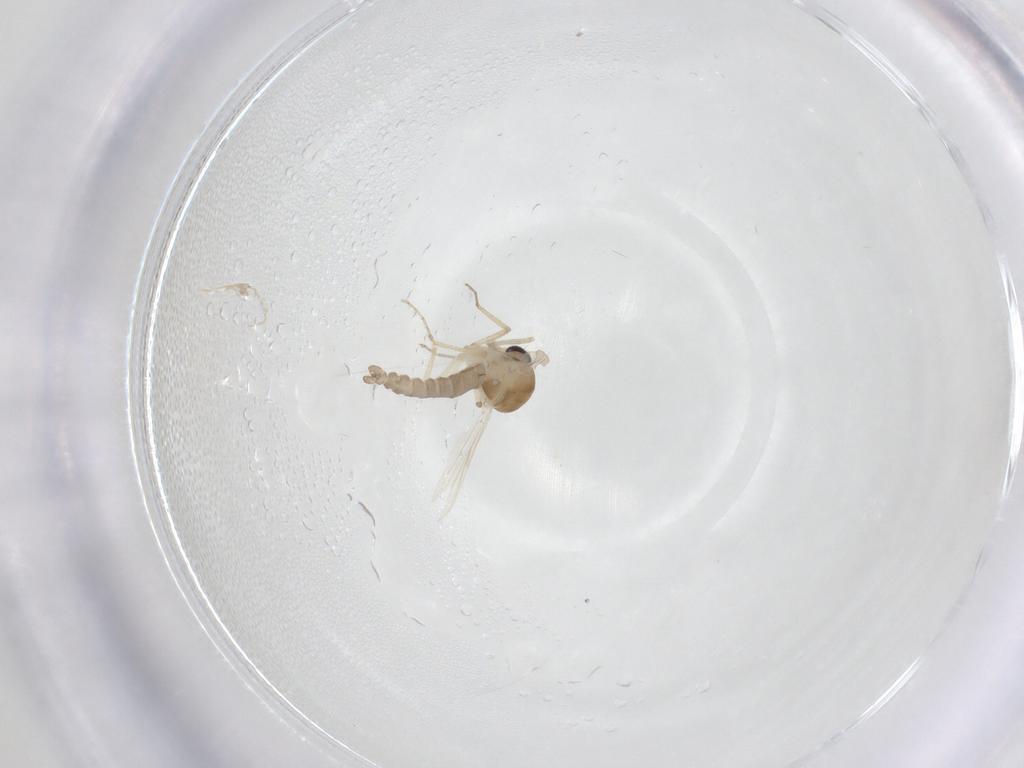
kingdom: Animalia
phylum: Arthropoda
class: Insecta
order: Diptera
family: Ceratopogonidae
